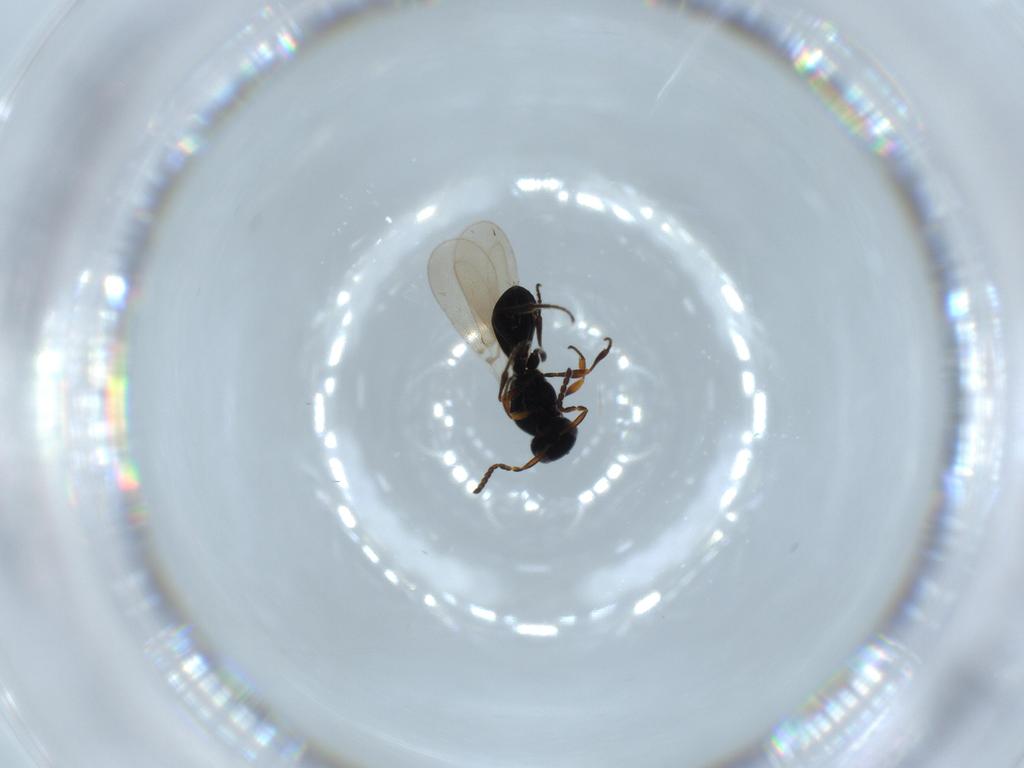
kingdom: Animalia
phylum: Arthropoda
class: Insecta
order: Hymenoptera
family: Platygastridae
